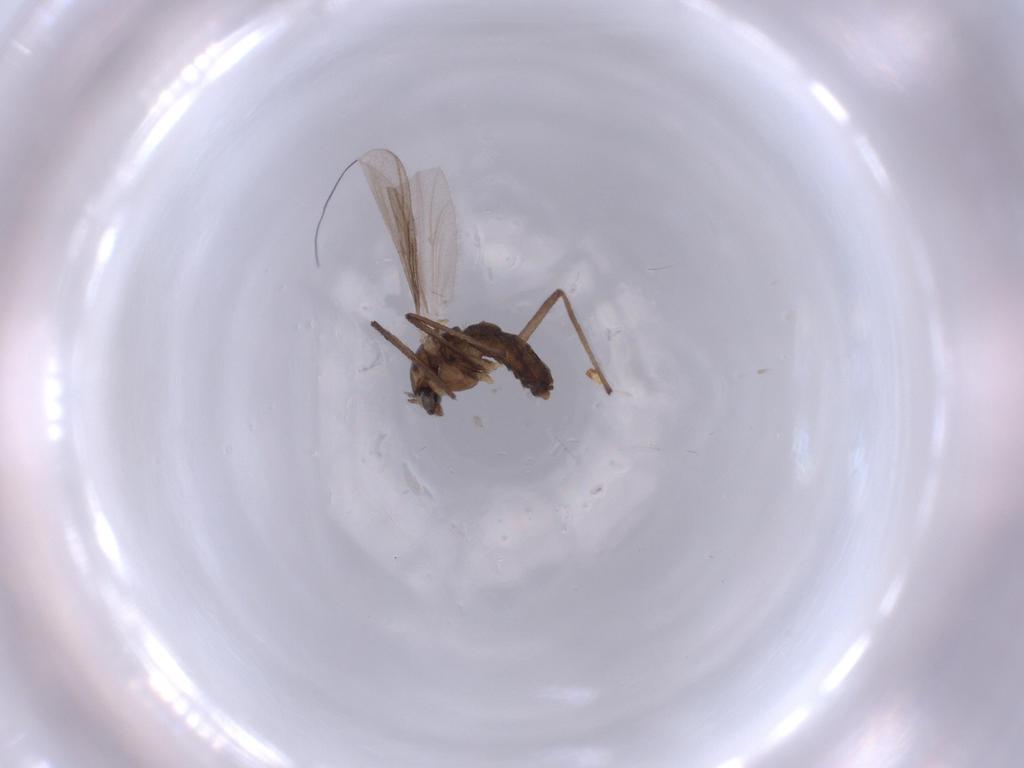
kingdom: Animalia
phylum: Arthropoda
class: Insecta
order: Diptera
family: Chironomidae
